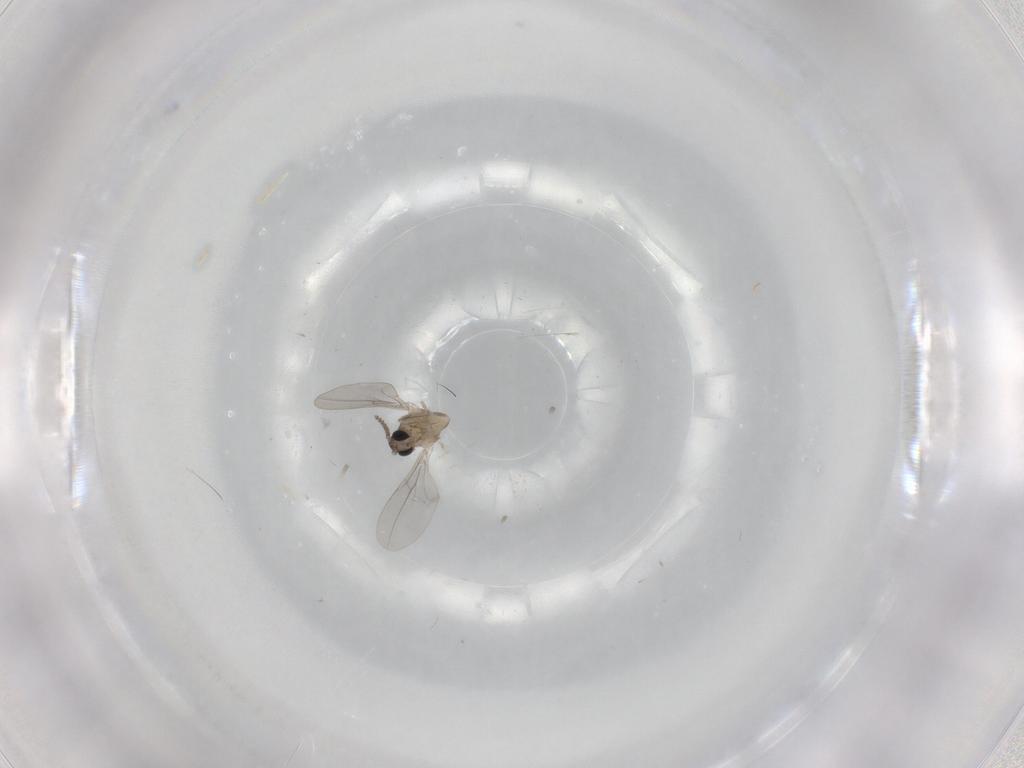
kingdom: Animalia
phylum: Arthropoda
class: Insecta
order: Diptera
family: Cecidomyiidae
